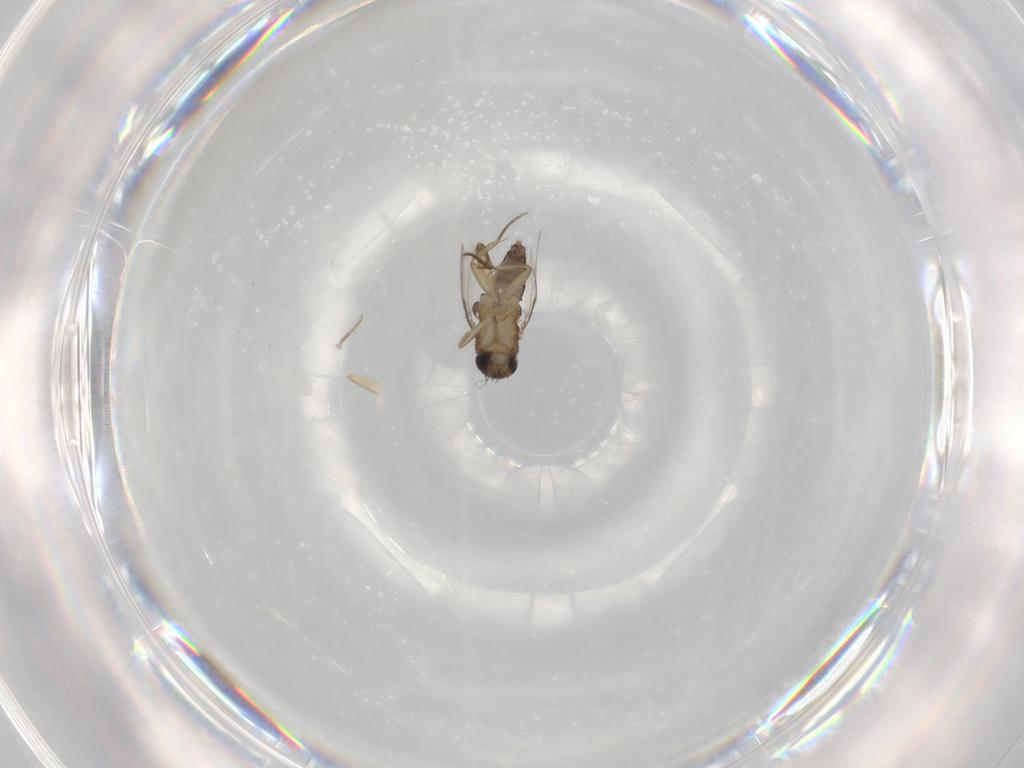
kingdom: Animalia
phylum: Arthropoda
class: Insecta
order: Diptera
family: Phoridae
